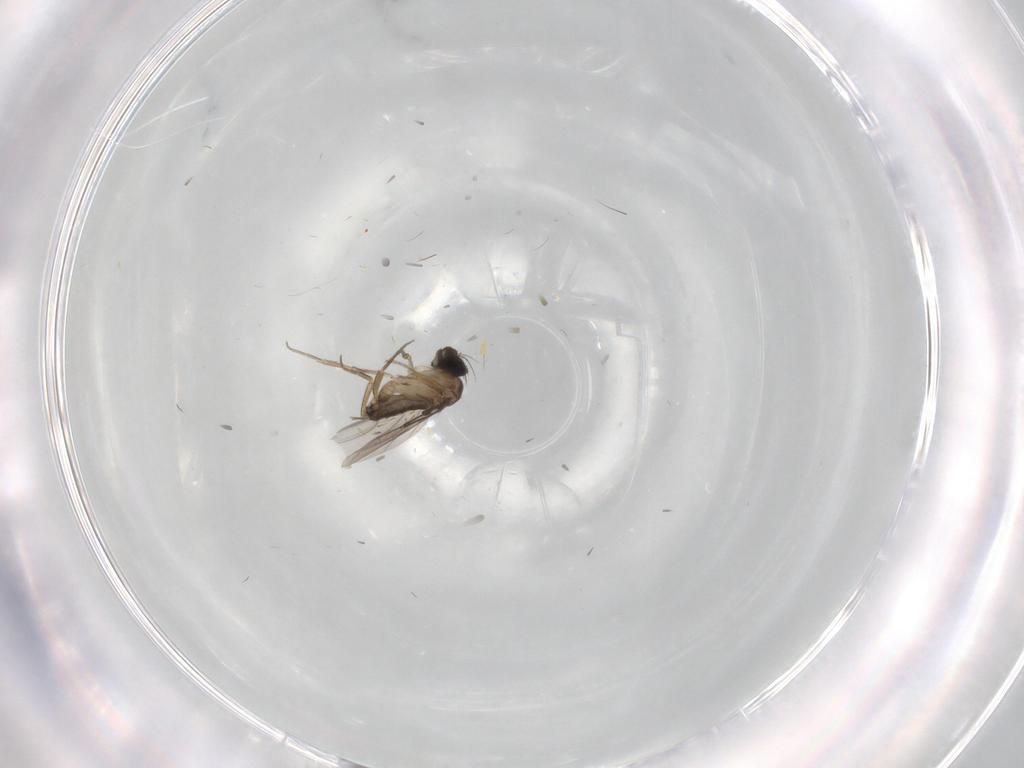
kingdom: Animalia
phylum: Arthropoda
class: Insecta
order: Diptera
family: Phoridae
